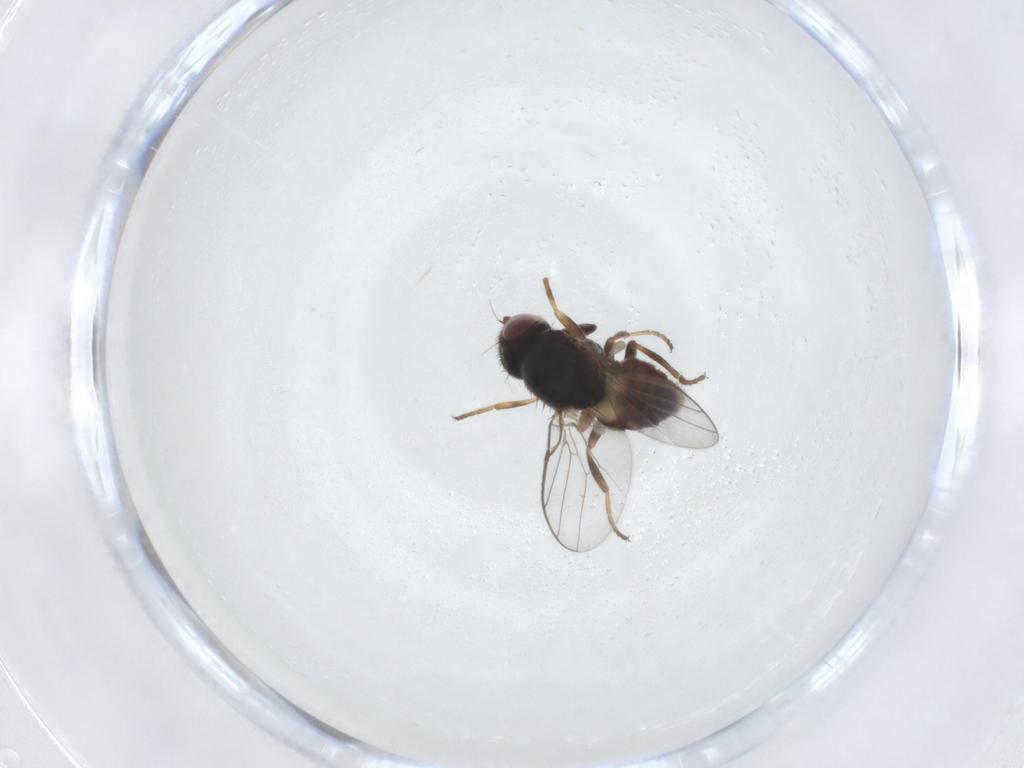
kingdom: Animalia
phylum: Arthropoda
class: Insecta
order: Diptera
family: Chloropidae
